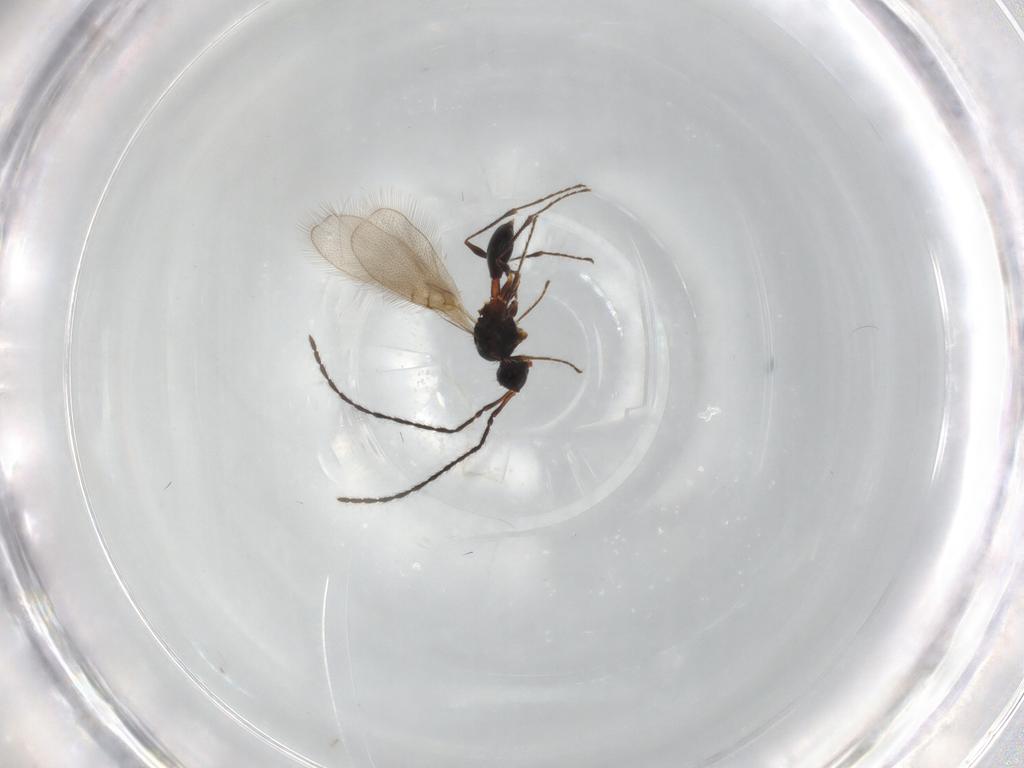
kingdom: Animalia
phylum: Arthropoda
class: Insecta
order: Hymenoptera
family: Diapriidae
